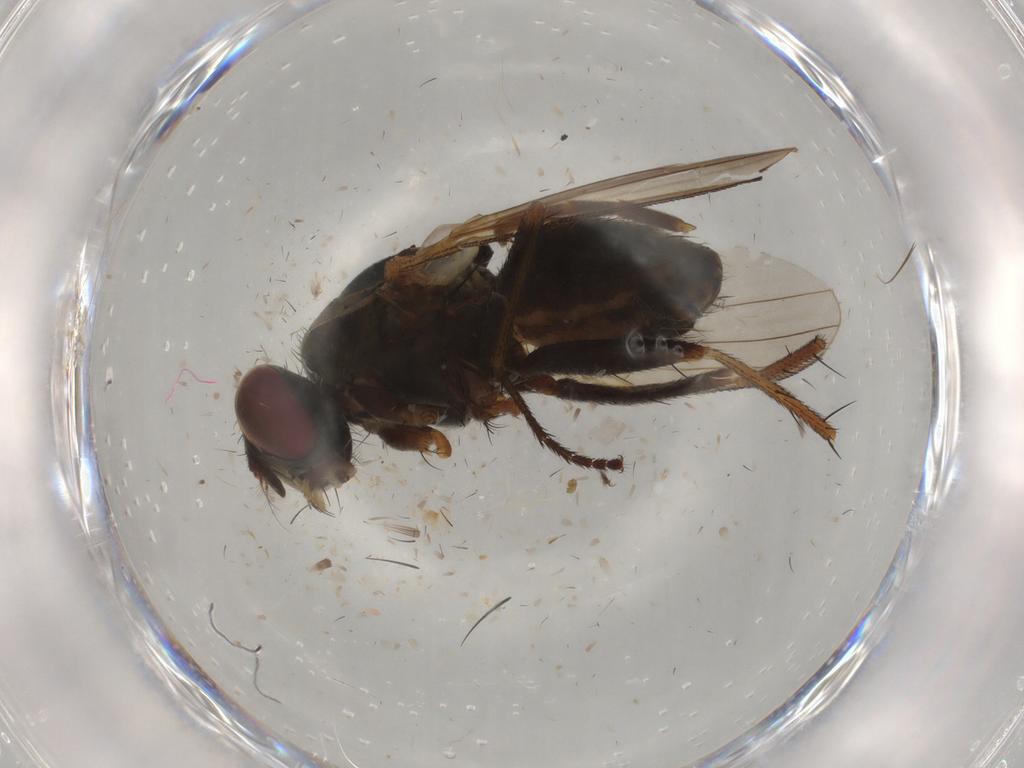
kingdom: Animalia
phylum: Arthropoda
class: Insecta
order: Diptera
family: Muscidae
